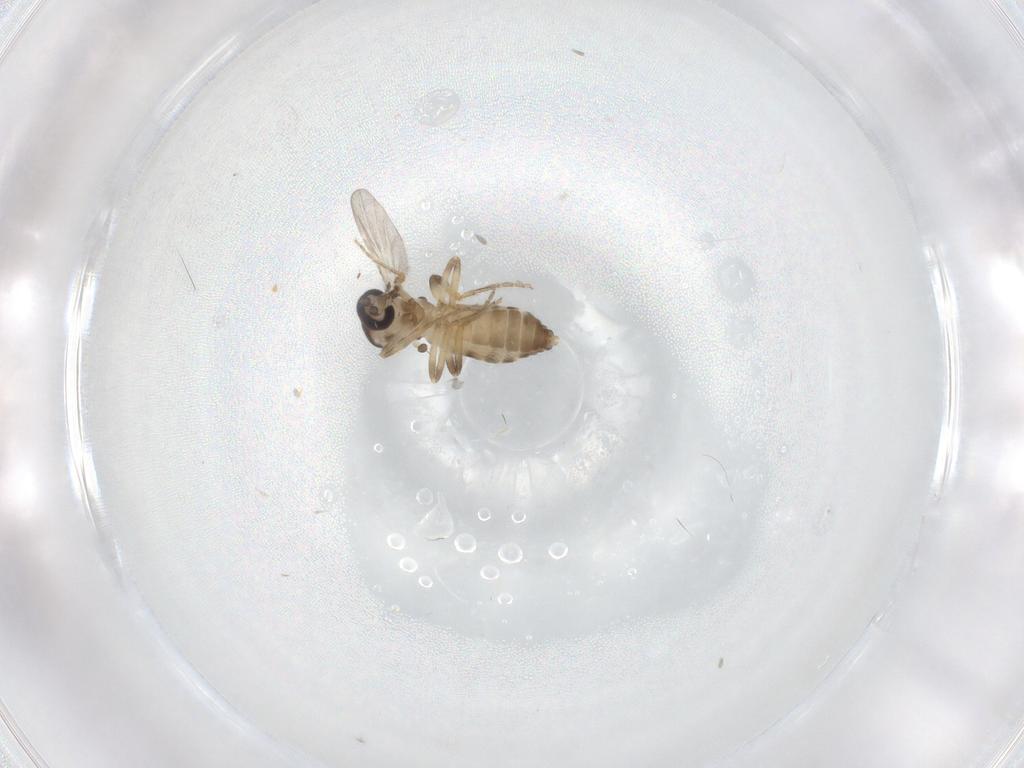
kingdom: Animalia
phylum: Arthropoda
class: Insecta
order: Diptera
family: Ceratopogonidae
